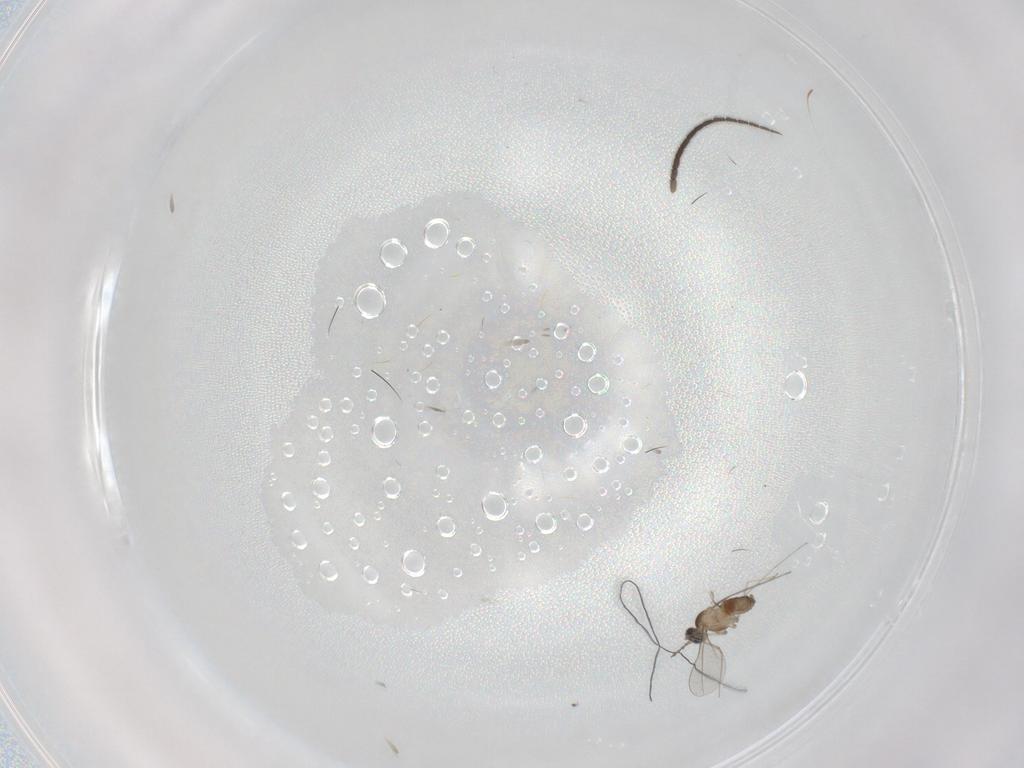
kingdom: Animalia
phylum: Arthropoda
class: Insecta
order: Diptera
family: Cecidomyiidae
